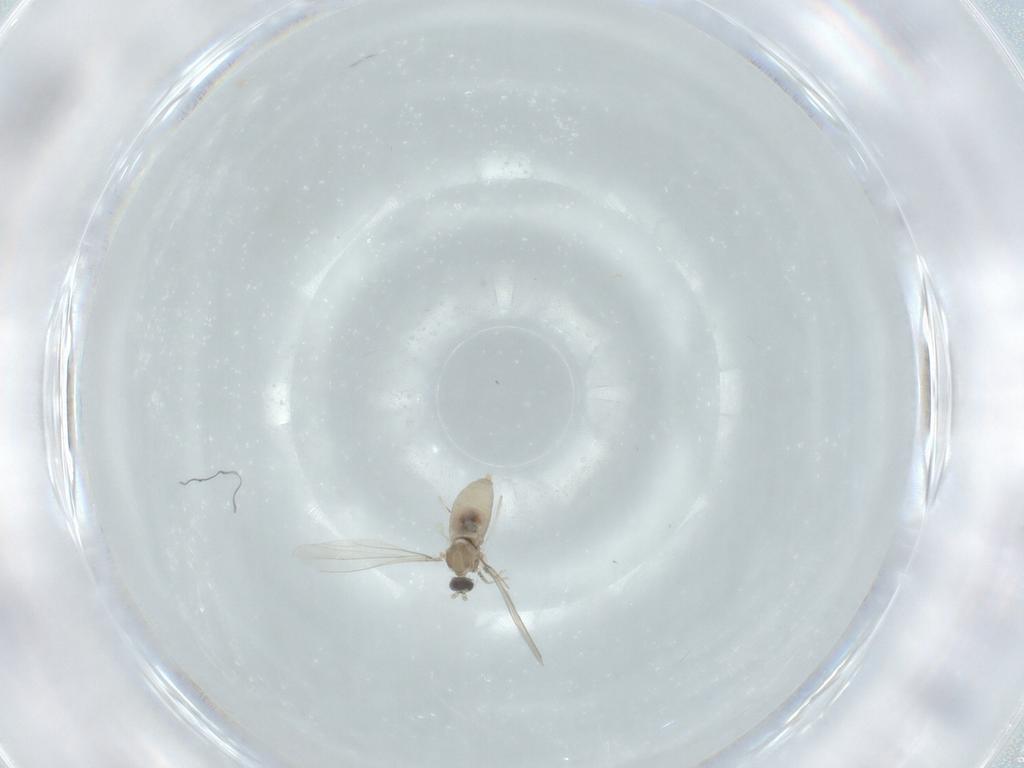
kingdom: Animalia
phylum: Arthropoda
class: Insecta
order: Diptera
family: Cecidomyiidae
